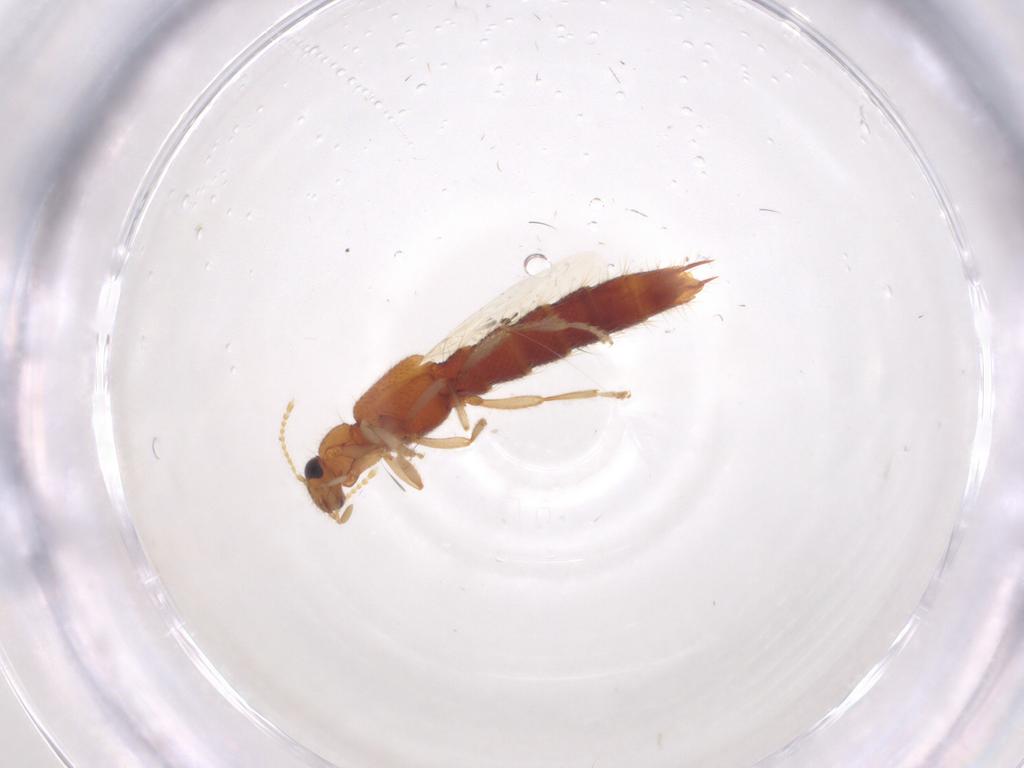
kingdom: Animalia
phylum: Arthropoda
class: Insecta
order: Coleoptera
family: Staphylinidae
